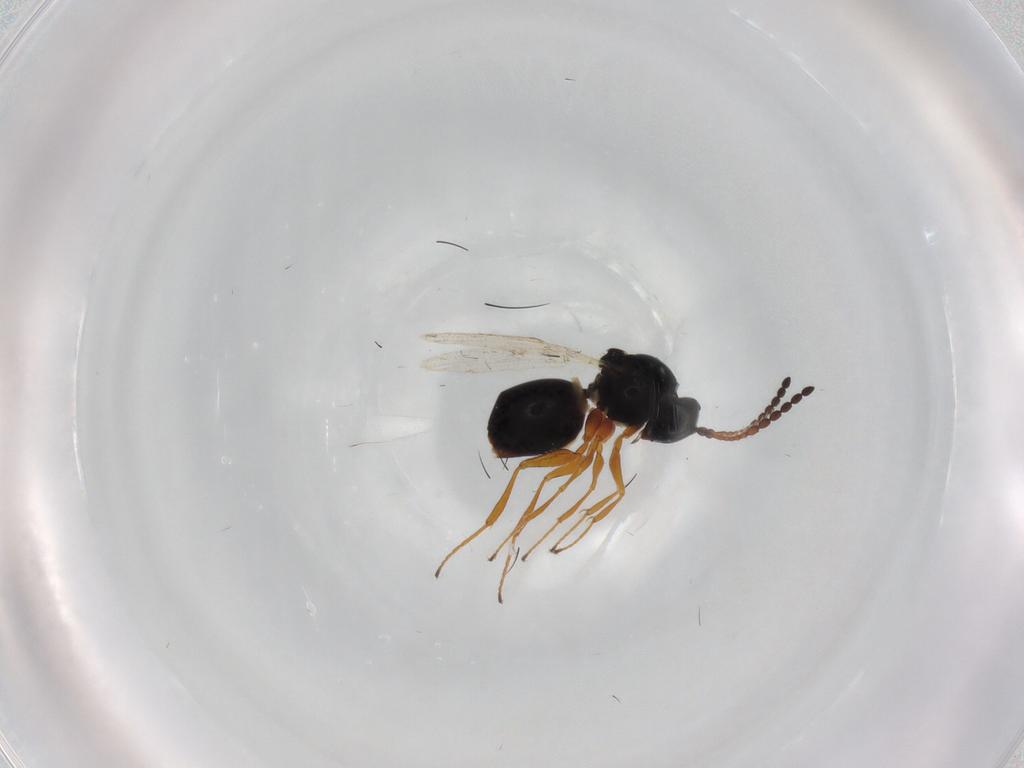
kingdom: Animalia
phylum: Arthropoda
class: Insecta
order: Hymenoptera
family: Figitidae
